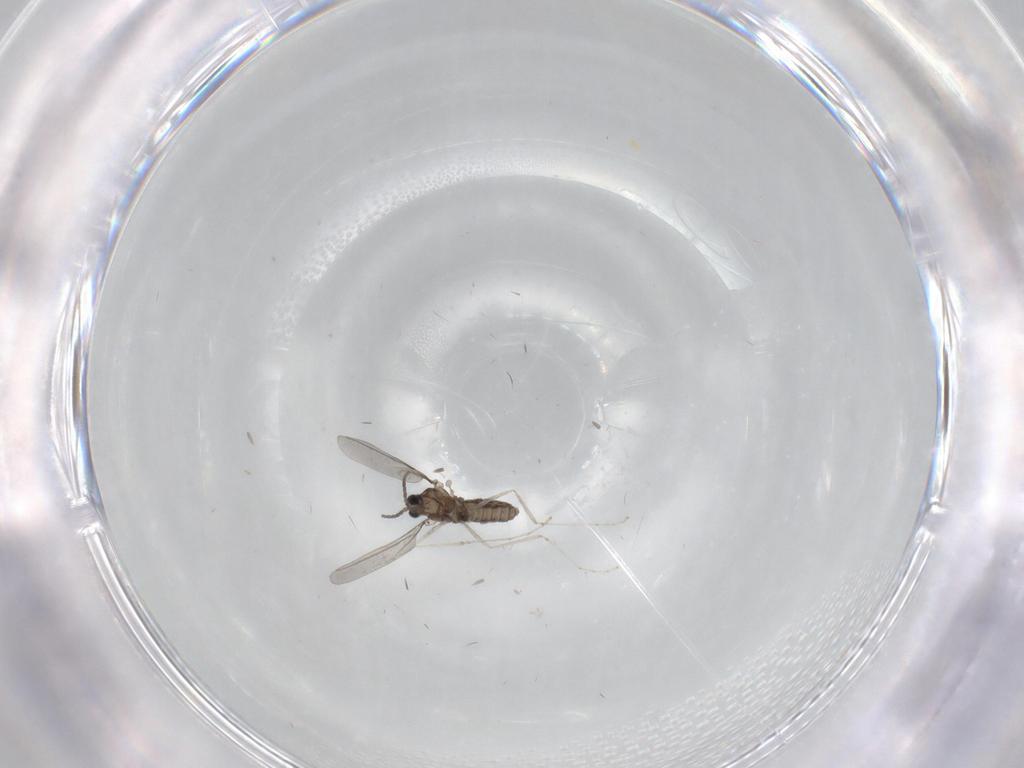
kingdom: Animalia
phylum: Arthropoda
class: Insecta
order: Diptera
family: Cecidomyiidae
